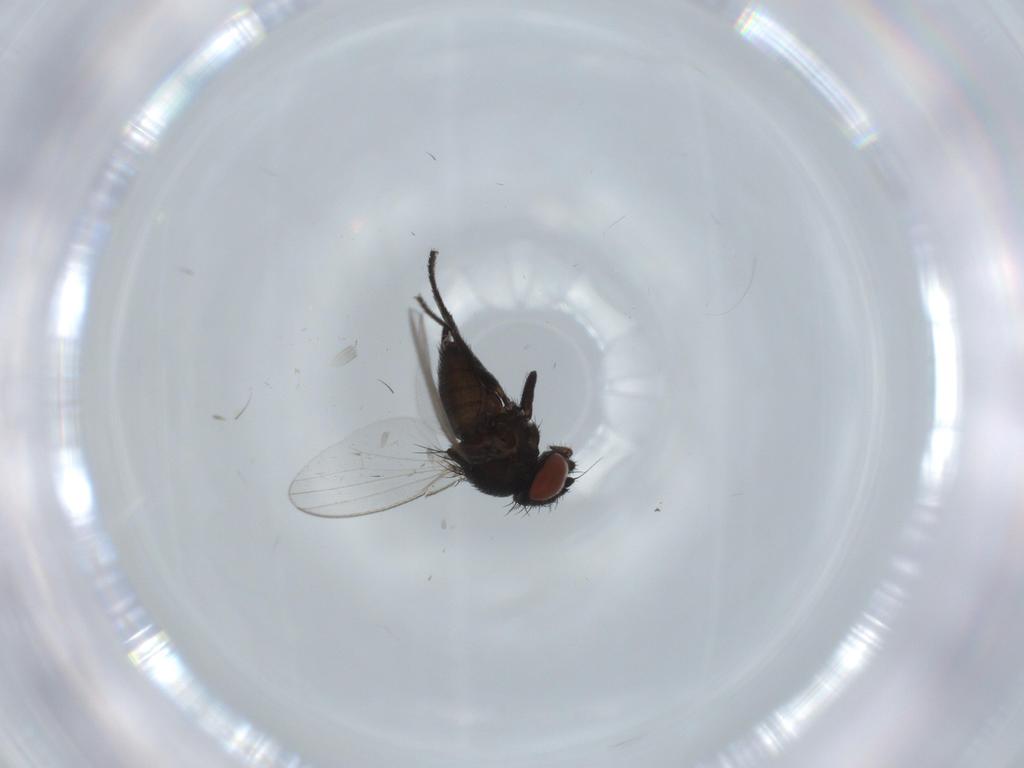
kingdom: Animalia
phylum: Arthropoda
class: Insecta
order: Diptera
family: Milichiidae
